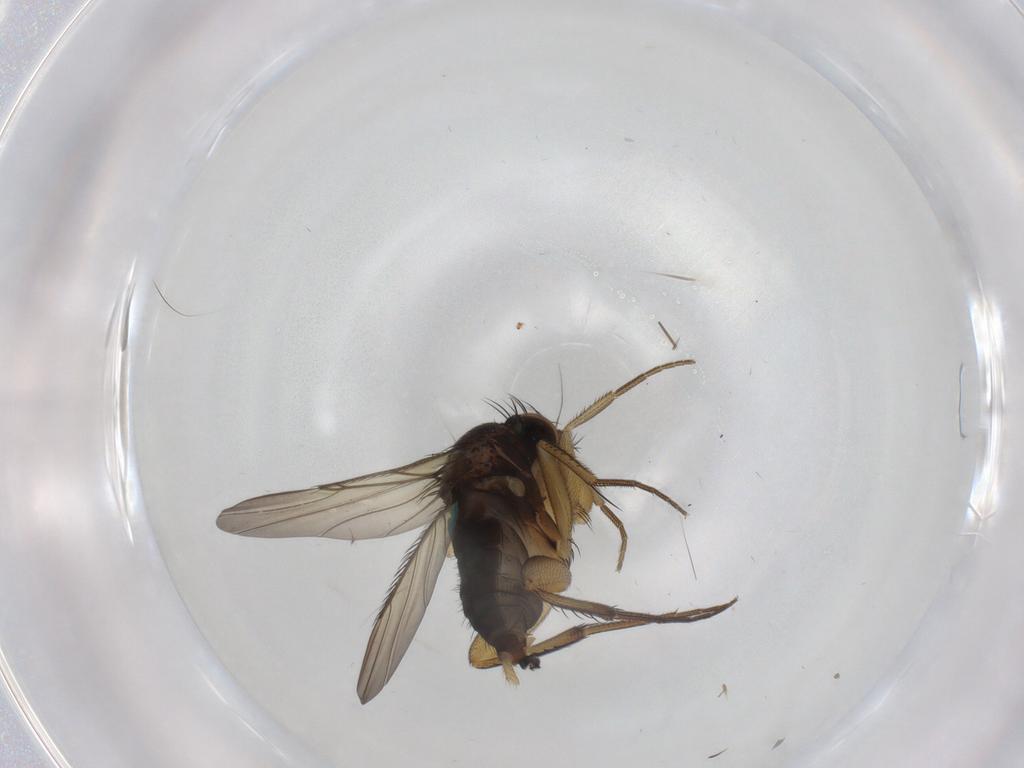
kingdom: Animalia
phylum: Arthropoda
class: Insecta
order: Diptera
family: Phoridae
